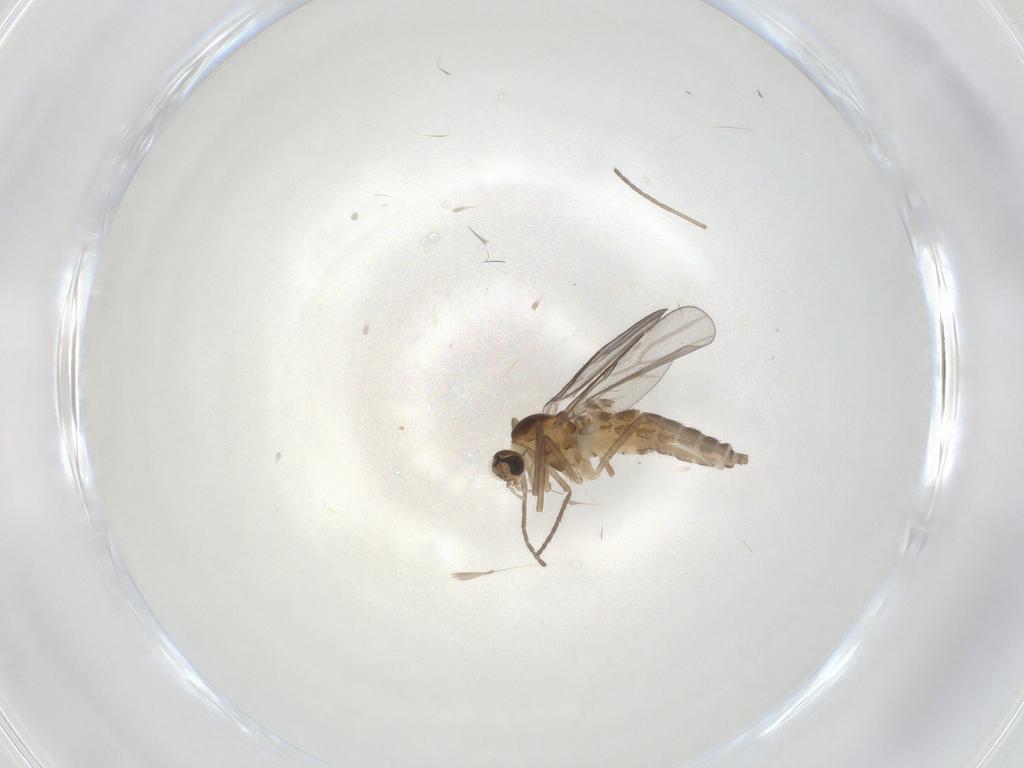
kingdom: Animalia
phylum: Arthropoda
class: Insecta
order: Diptera
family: Cecidomyiidae
